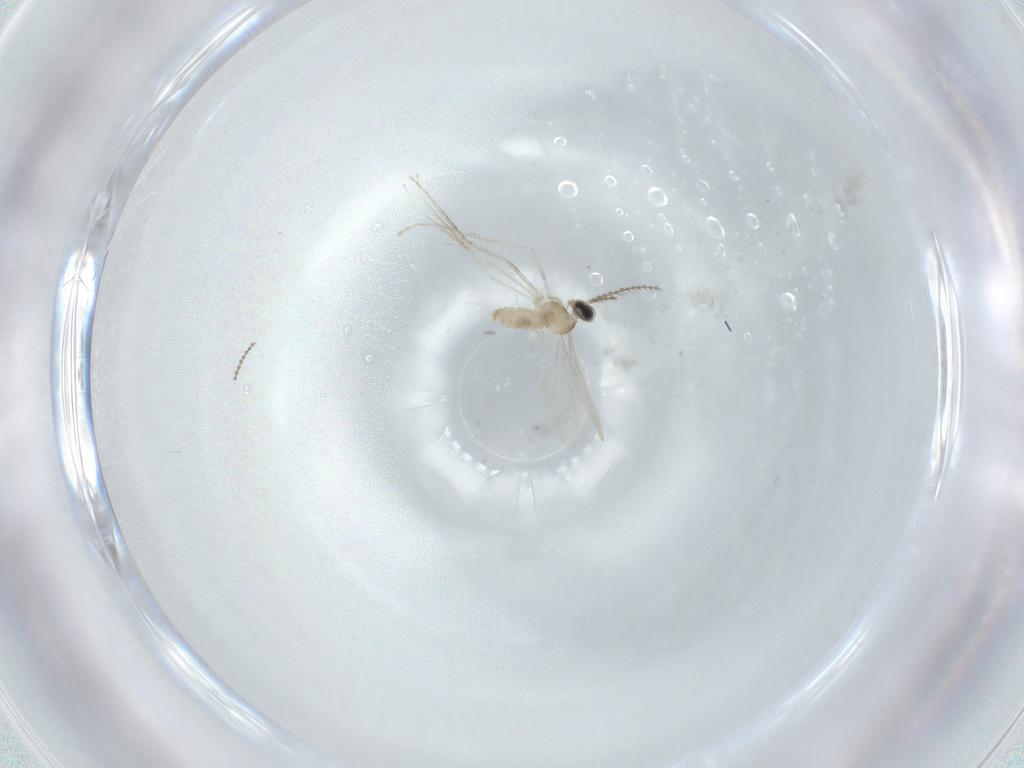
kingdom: Animalia
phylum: Arthropoda
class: Insecta
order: Diptera
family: Cecidomyiidae
